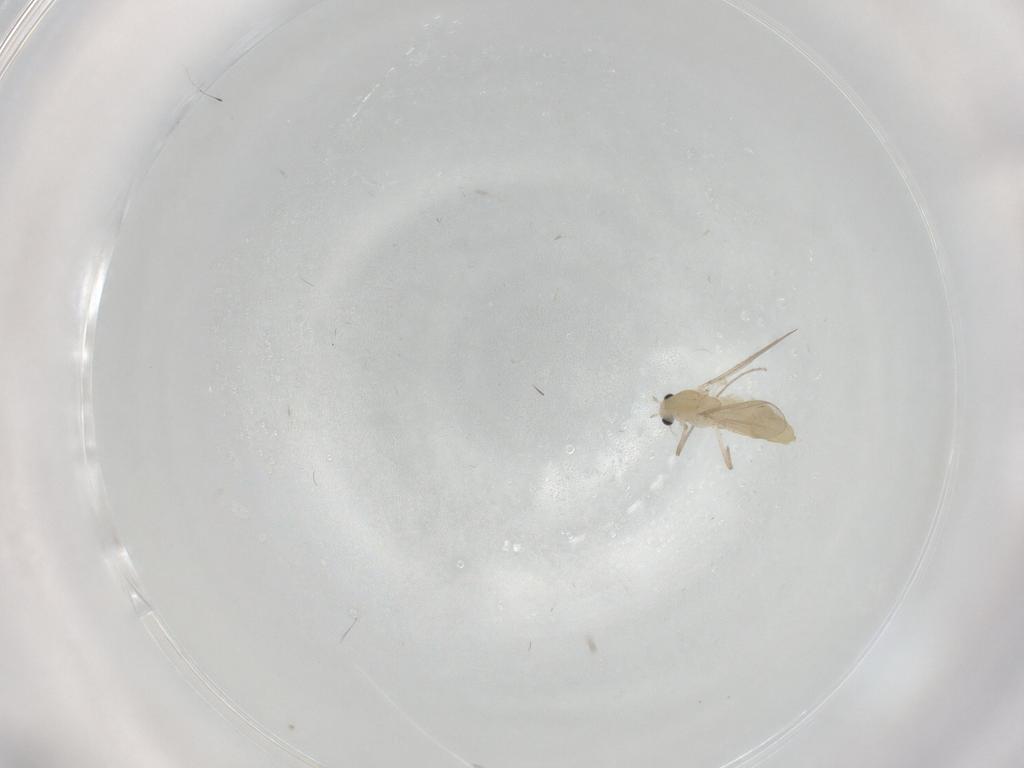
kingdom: Animalia
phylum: Arthropoda
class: Insecta
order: Diptera
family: Chironomidae
